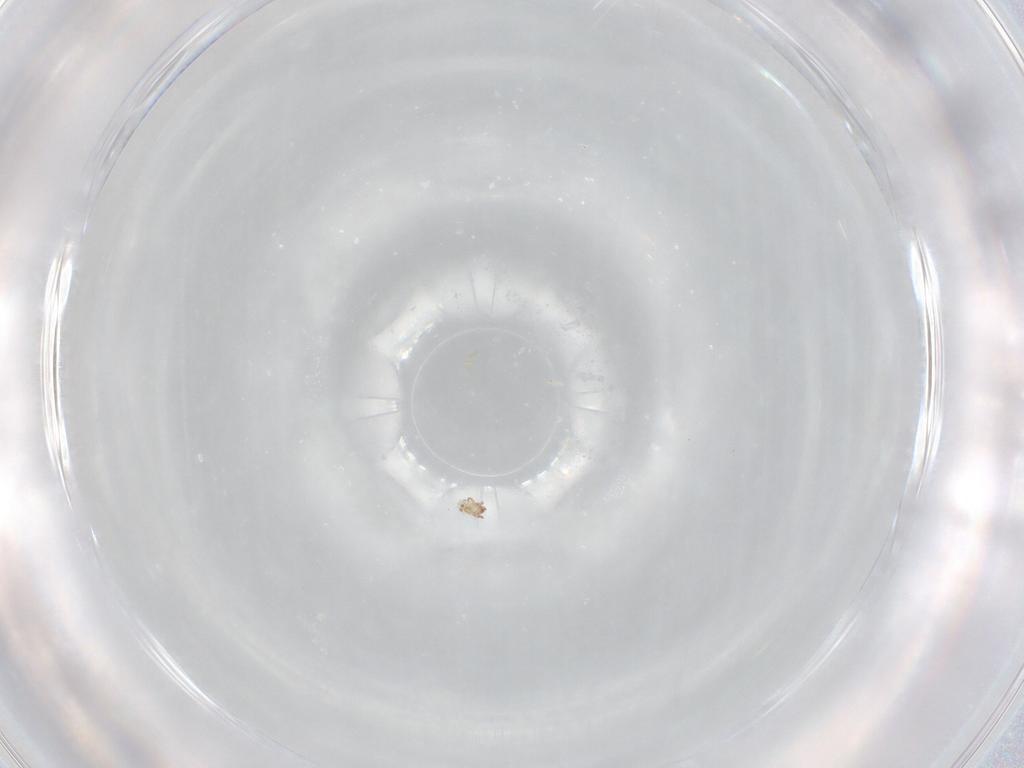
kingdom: Animalia
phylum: Arthropoda
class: Arachnida
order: Sarcoptiformes
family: Humerobatidae
